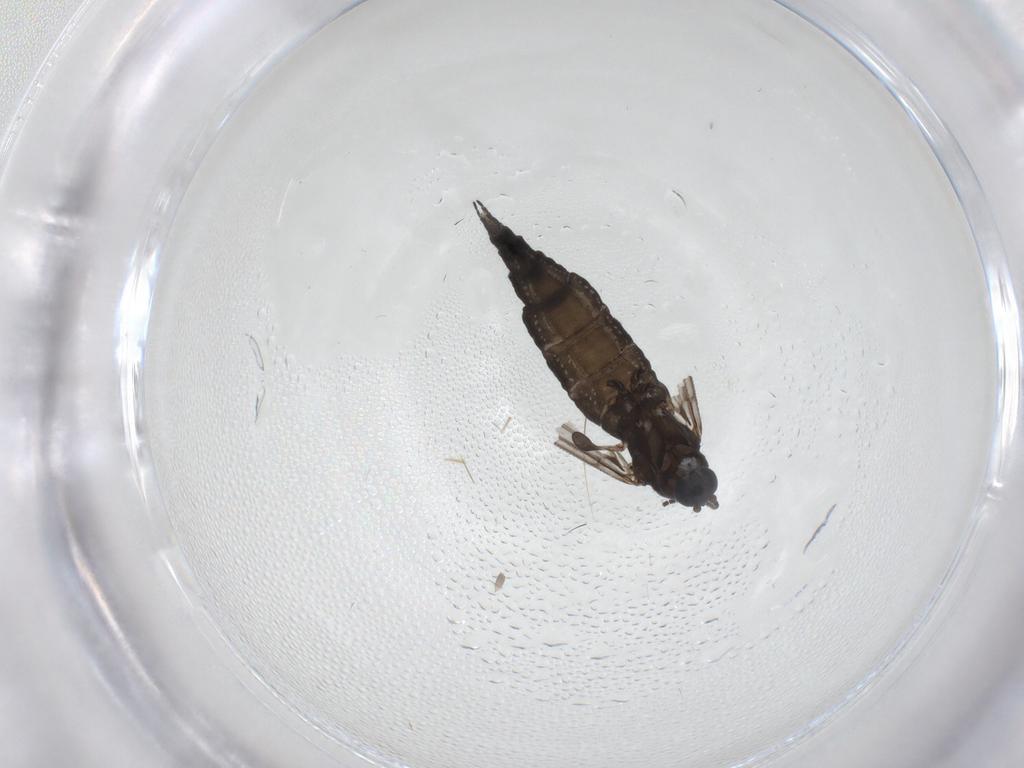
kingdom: Animalia
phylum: Arthropoda
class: Insecta
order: Diptera
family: Sciaridae
